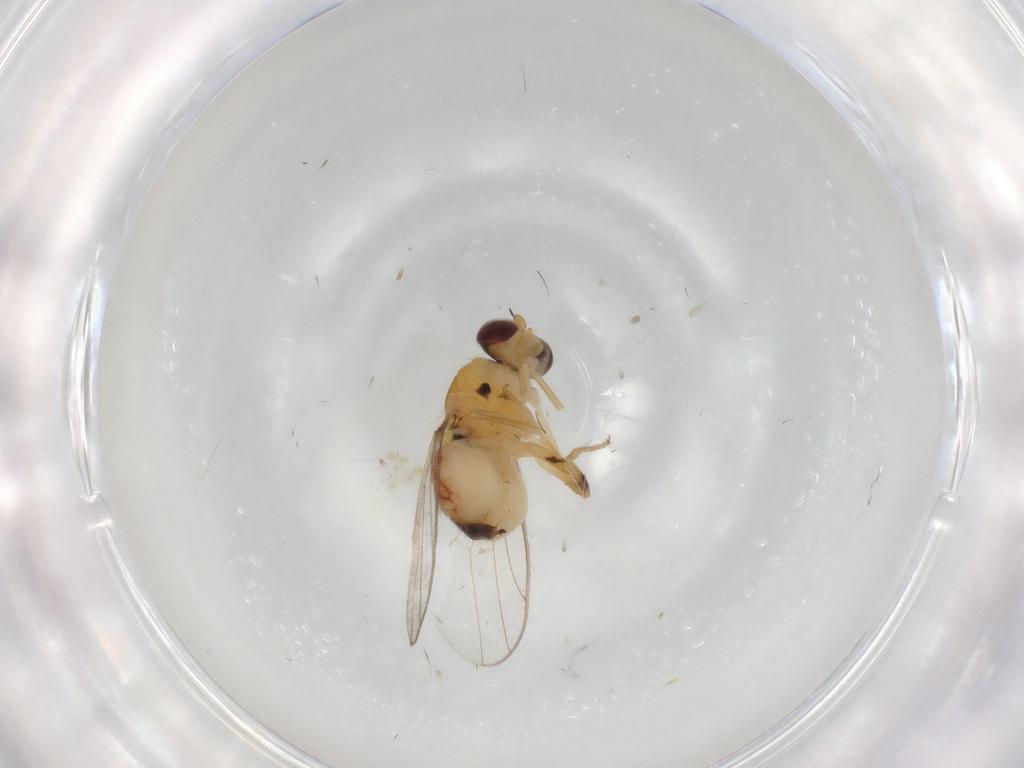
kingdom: Animalia
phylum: Arthropoda
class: Insecta
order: Diptera
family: Chloropidae
